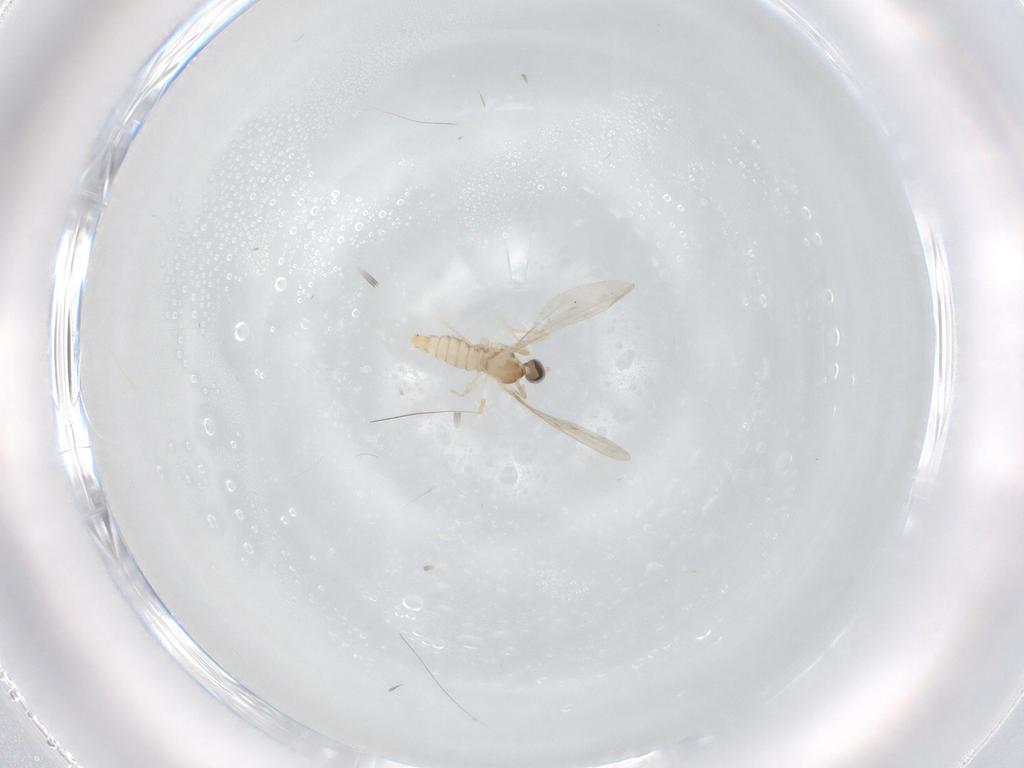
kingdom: Animalia
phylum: Arthropoda
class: Insecta
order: Diptera
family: Cecidomyiidae
